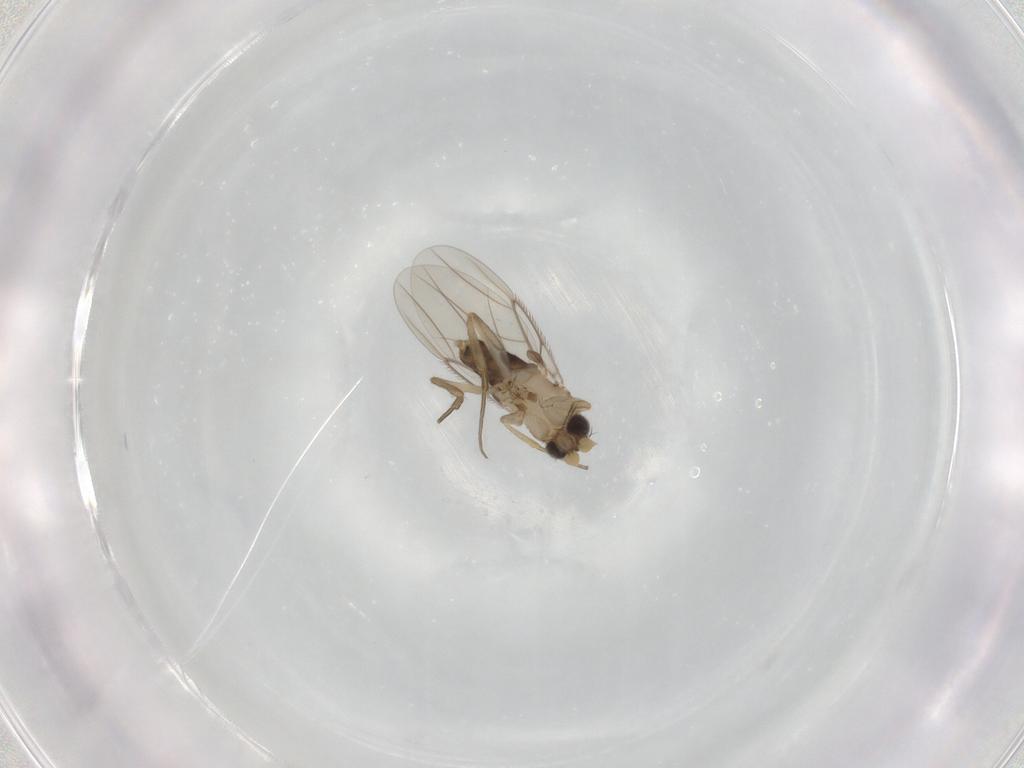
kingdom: Animalia
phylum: Arthropoda
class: Insecta
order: Diptera
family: Phoridae
